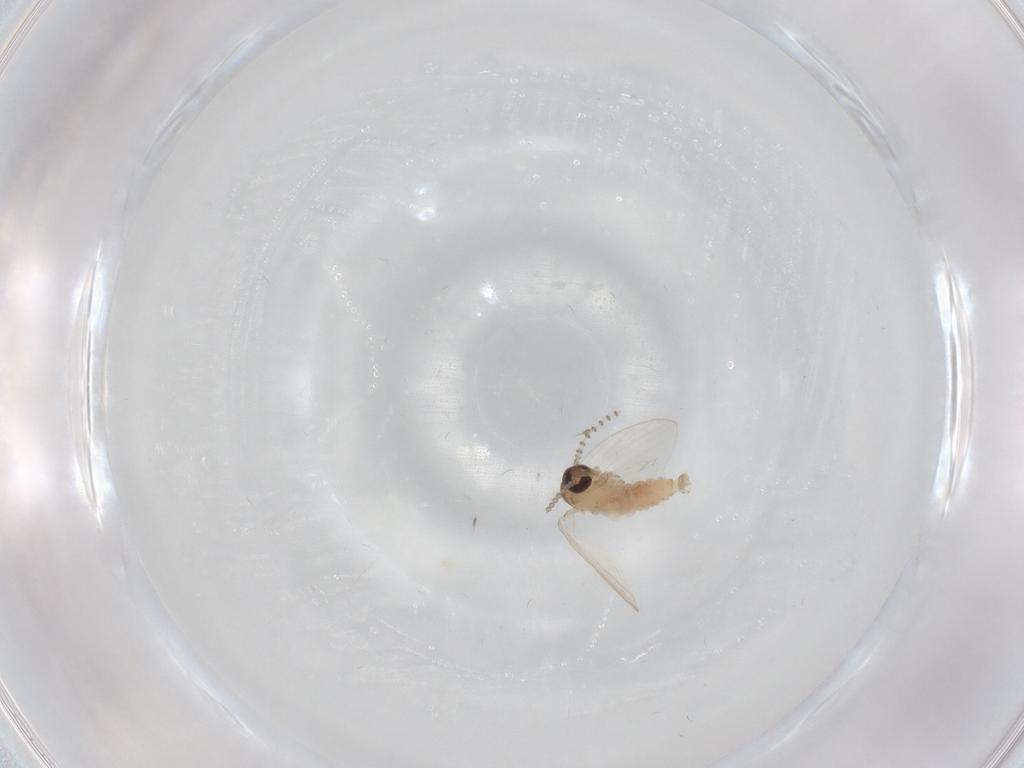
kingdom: Animalia
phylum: Arthropoda
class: Insecta
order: Diptera
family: Psychodidae
